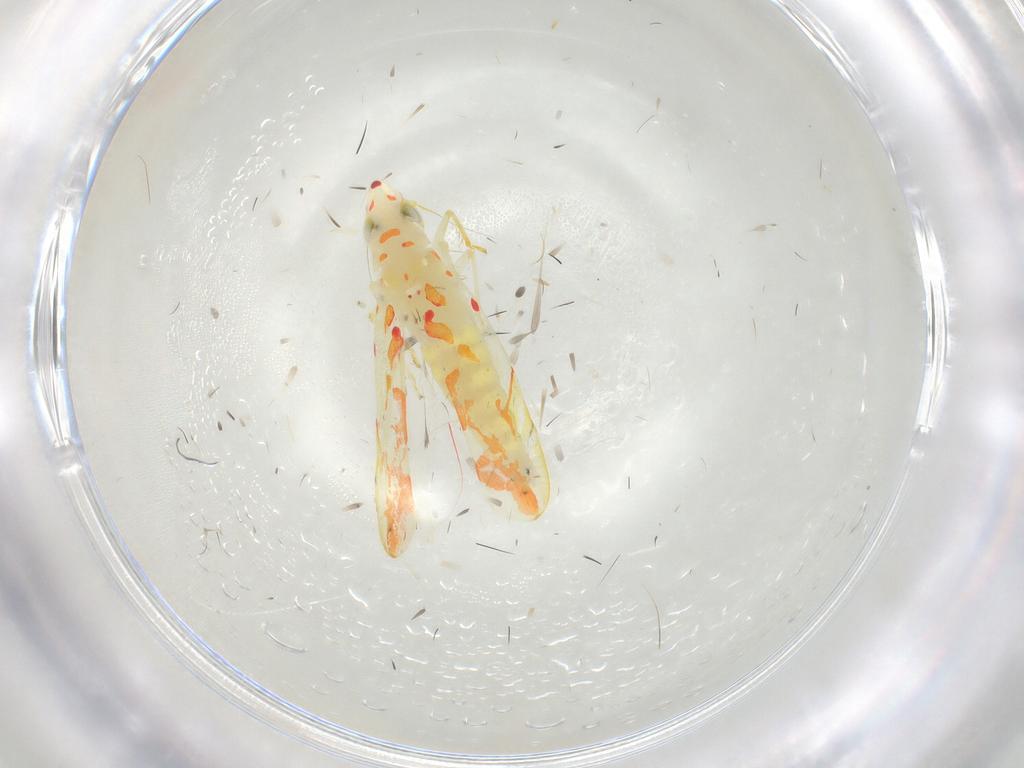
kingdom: Animalia
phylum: Arthropoda
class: Insecta
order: Hemiptera
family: Cicadellidae
